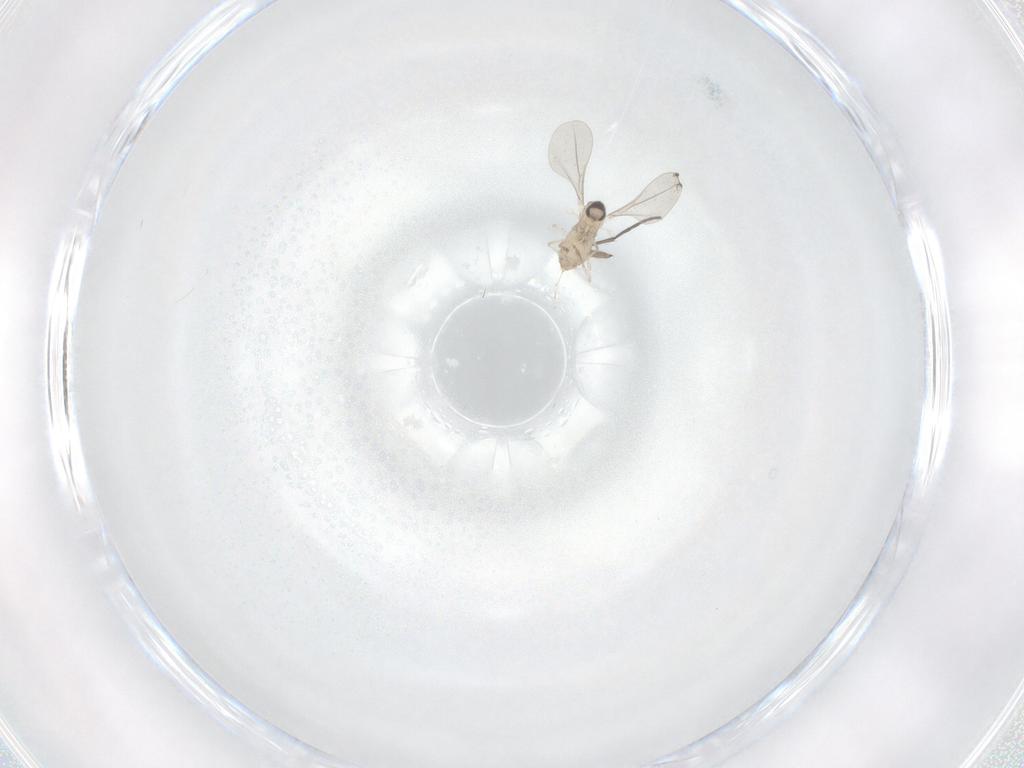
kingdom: Animalia
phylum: Arthropoda
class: Insecta
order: Diptera
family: Cecidomyiidae
